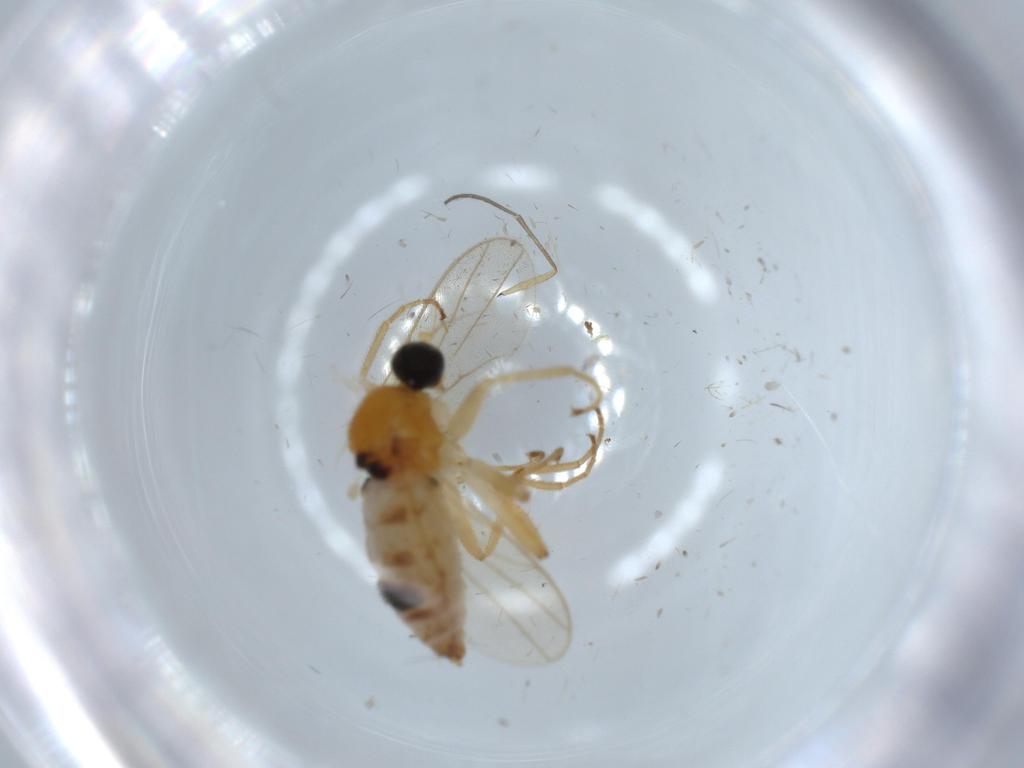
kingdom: Animalia
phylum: Arthropoda
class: Insecta
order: Diptera
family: Hybotidae
